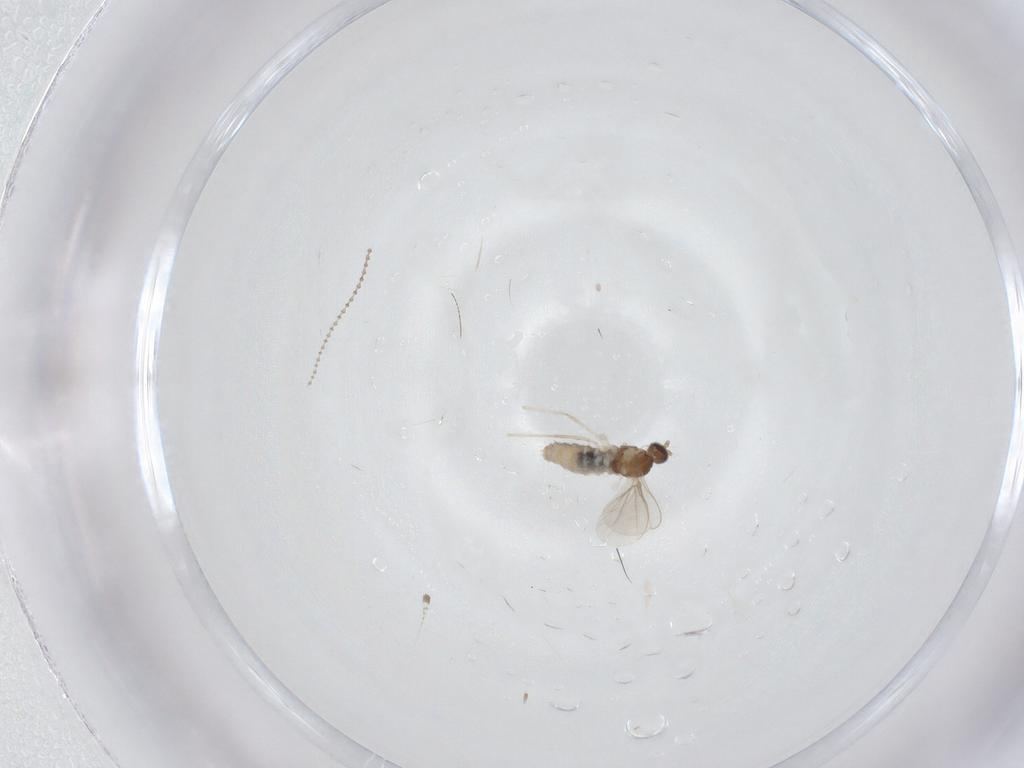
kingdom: Animalia
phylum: Arthropoda
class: Insecta
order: Diptera
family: Cecidomyiidae
